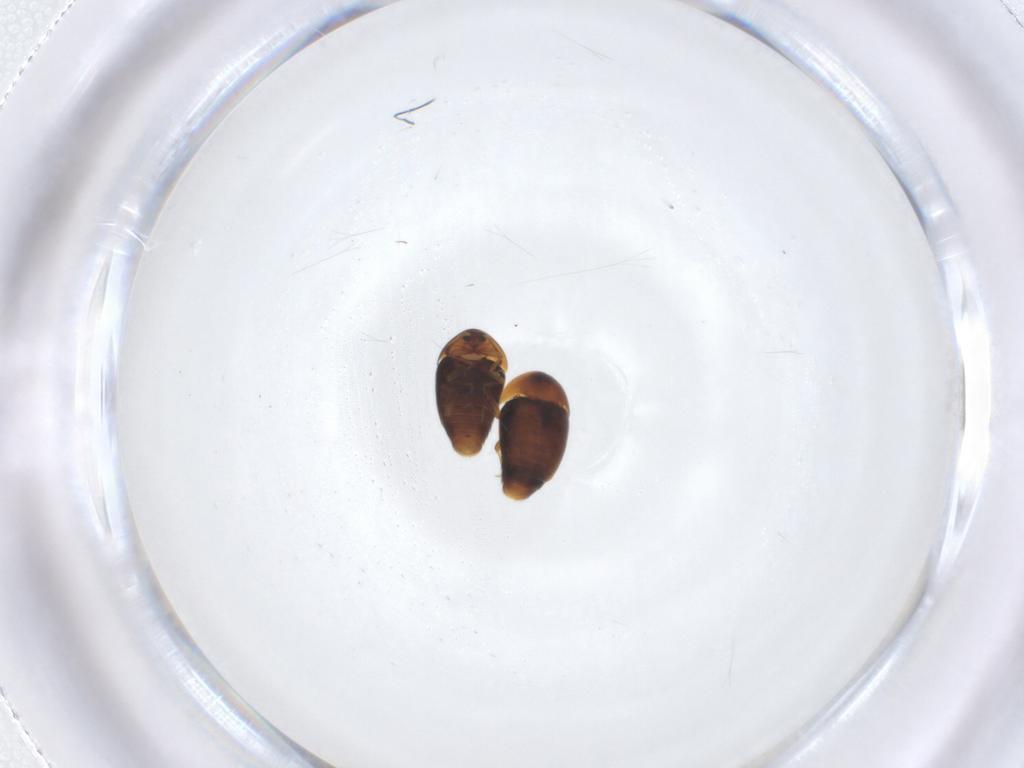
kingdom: Animalia
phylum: Arthropoda
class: Insecta
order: Coleoptera
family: Corylophidae
